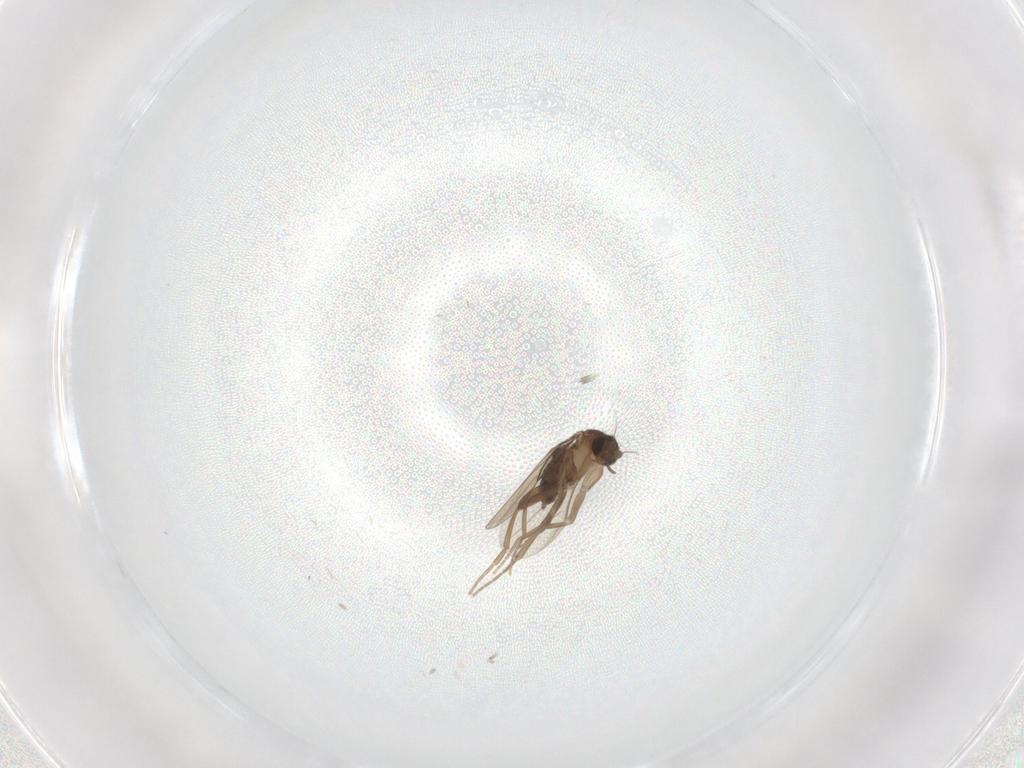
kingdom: Animalia
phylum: Arthropoda
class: Insecta
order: Diptera
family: Ceratopogonidae
